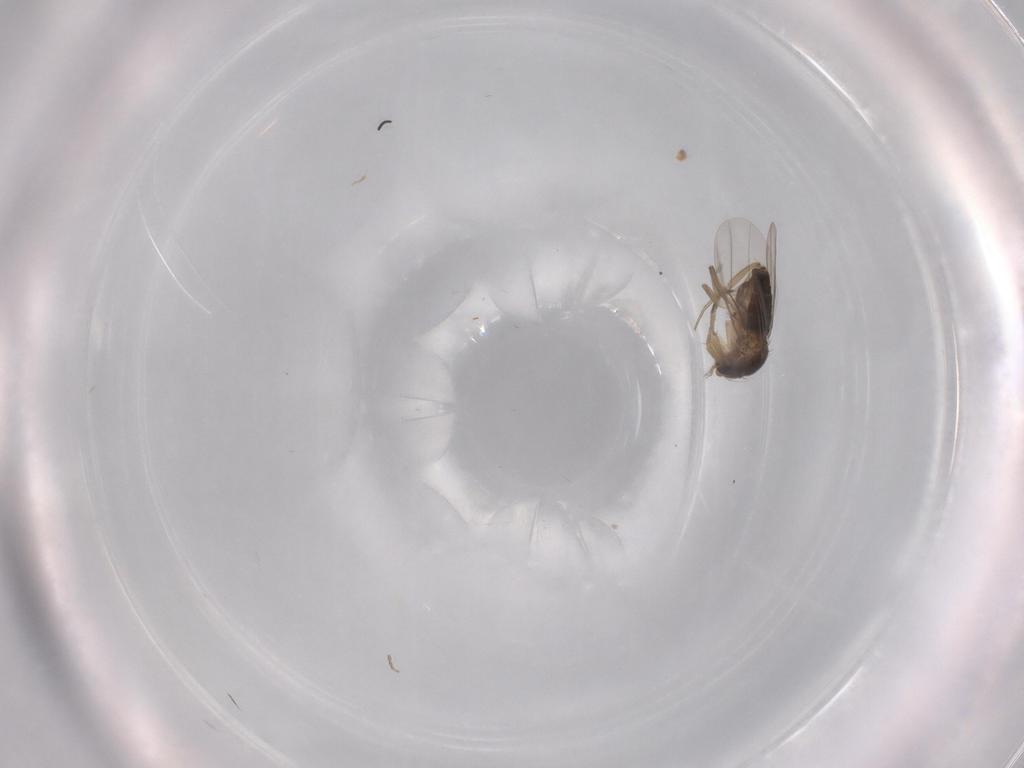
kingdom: Animalia
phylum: Arthropoda
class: Insecta
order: Diptera
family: Phoridae
